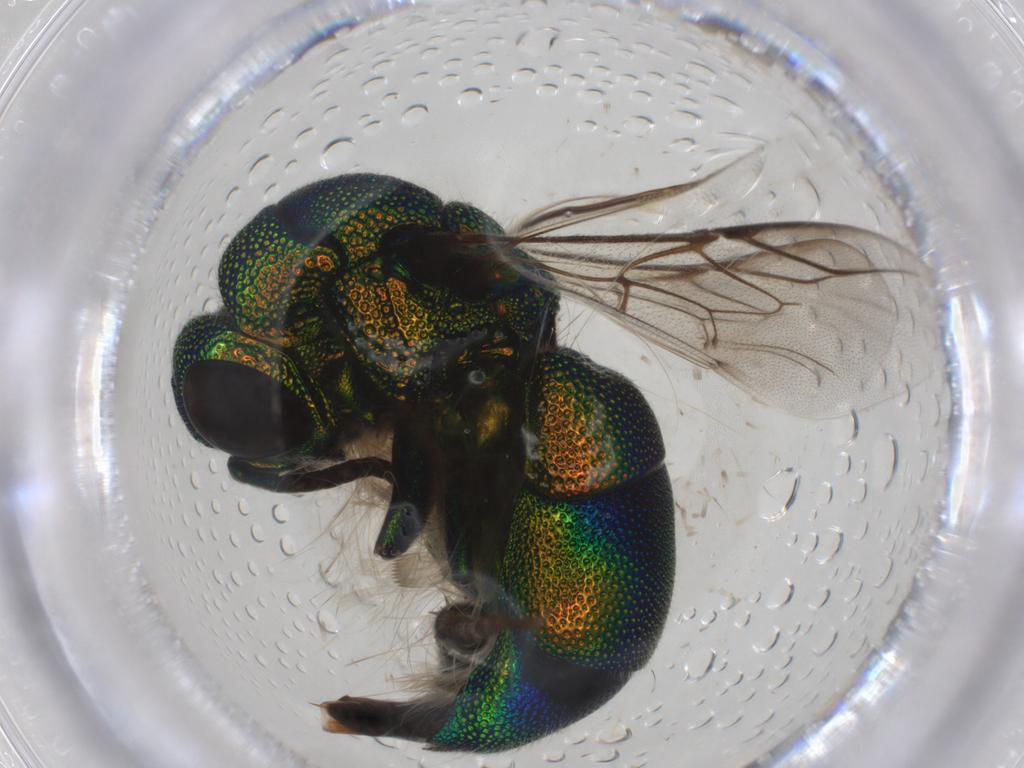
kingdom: Animalia
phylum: Arthropoda
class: Insecta
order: Hymenoptera
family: Chrysididae
